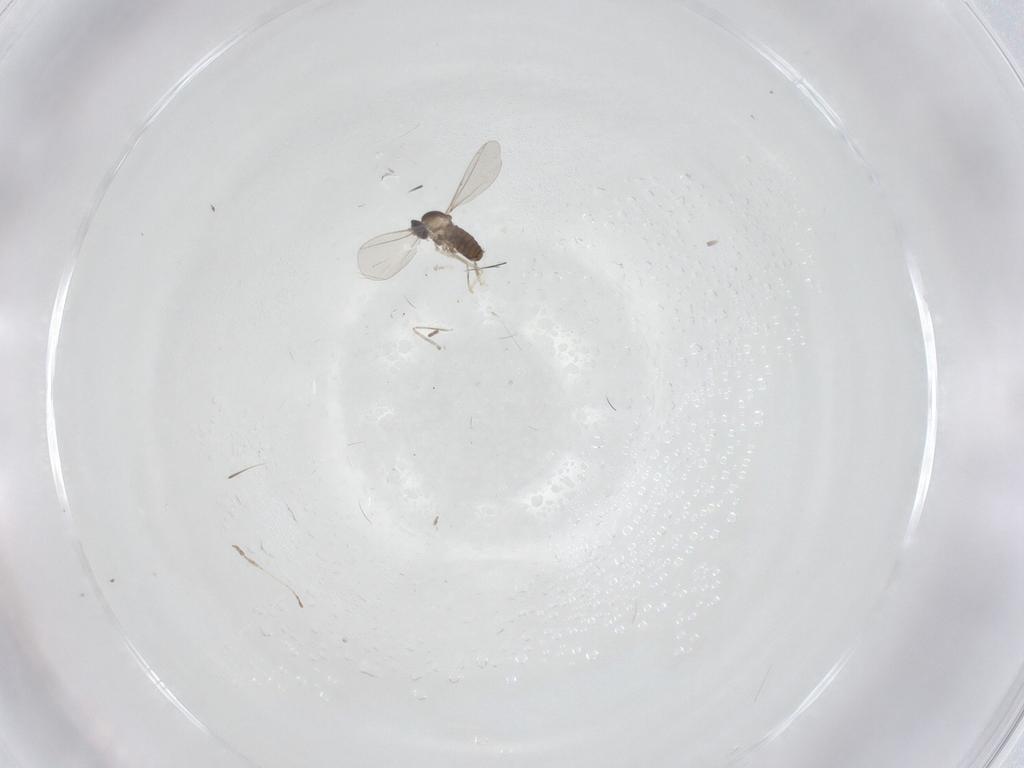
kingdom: Animalia
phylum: Arthropoda
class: Insecta
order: Diptera
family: Cecidomyiidae
